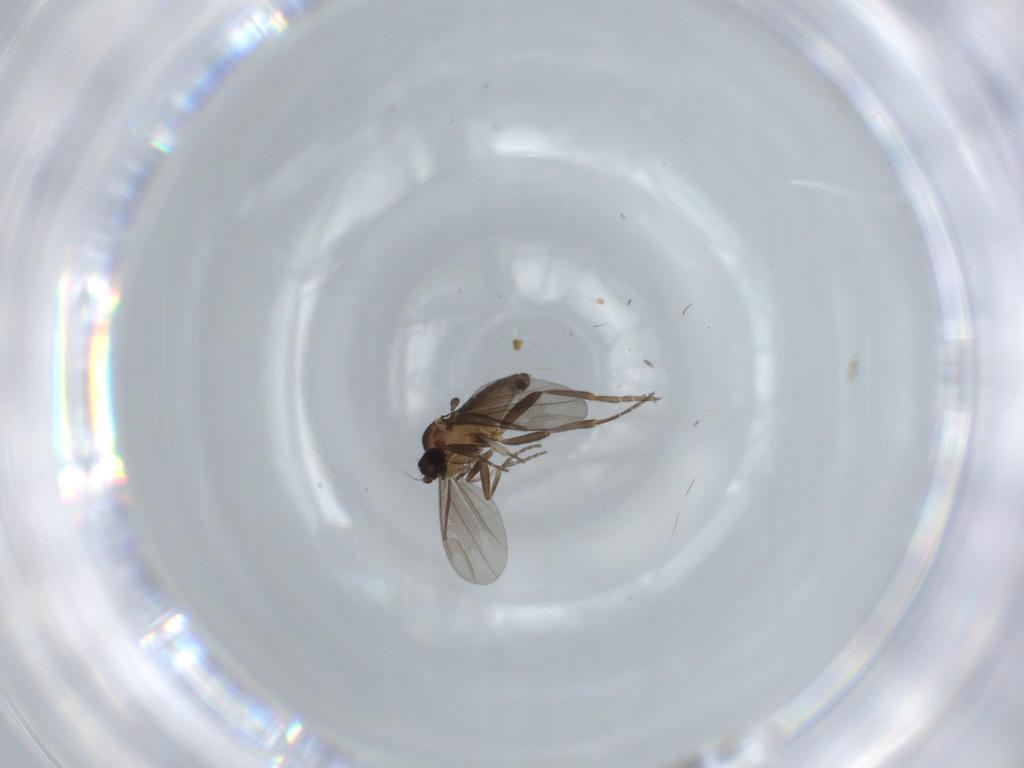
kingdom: Animalia
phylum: Arthropoda
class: Insecta
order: Diptera
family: Ceratopogonidae
